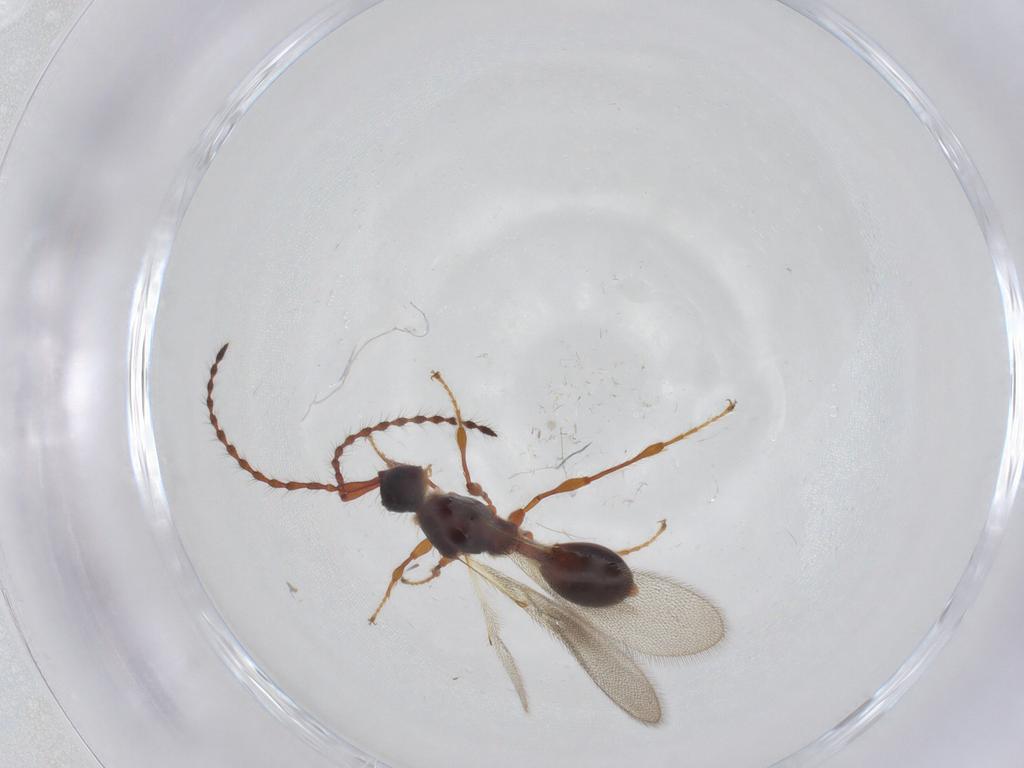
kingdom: Animalia
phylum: Arthropoda
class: Insecta
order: Hymenoptera
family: Diapriidae
